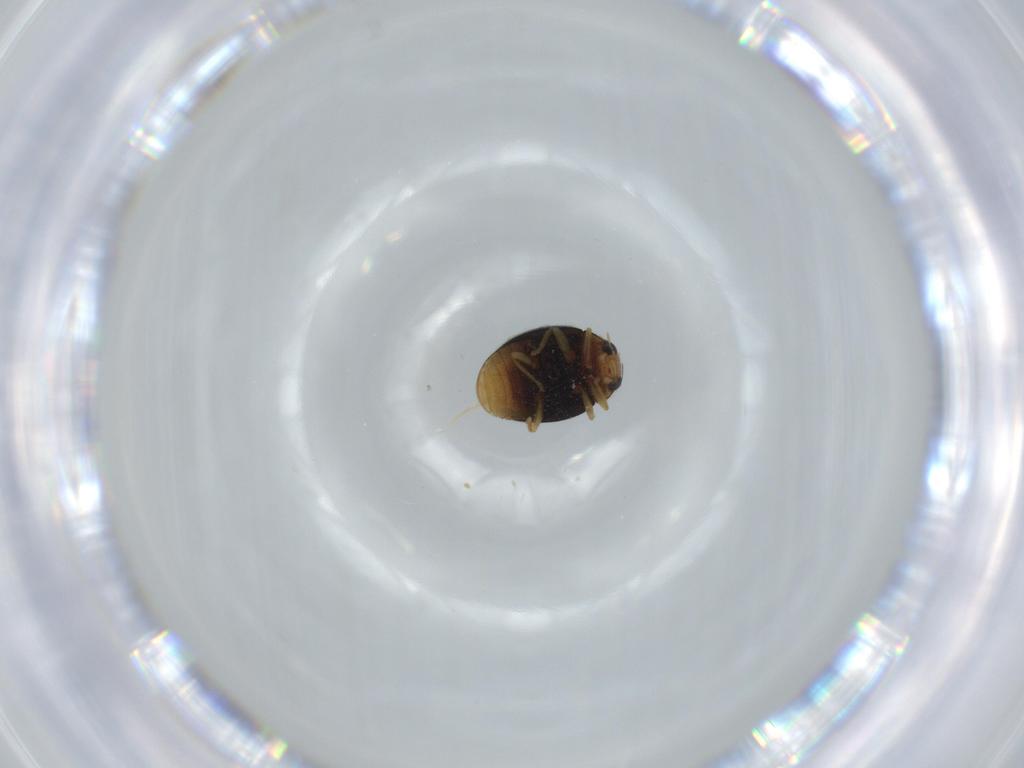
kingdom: Animalia
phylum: Arthropoda
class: Insecta
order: Coleoptera
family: Coccinellidae
